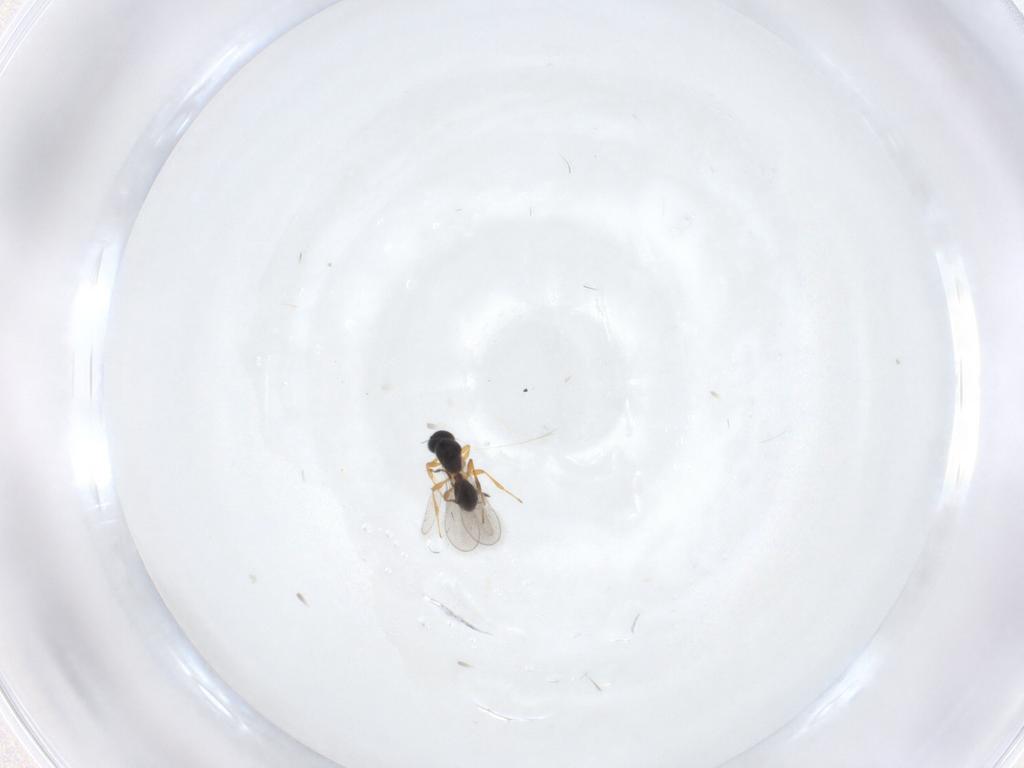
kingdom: Animalia
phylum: Arthropoda
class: Insecta
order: Hymenoptera
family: Platygastridae
